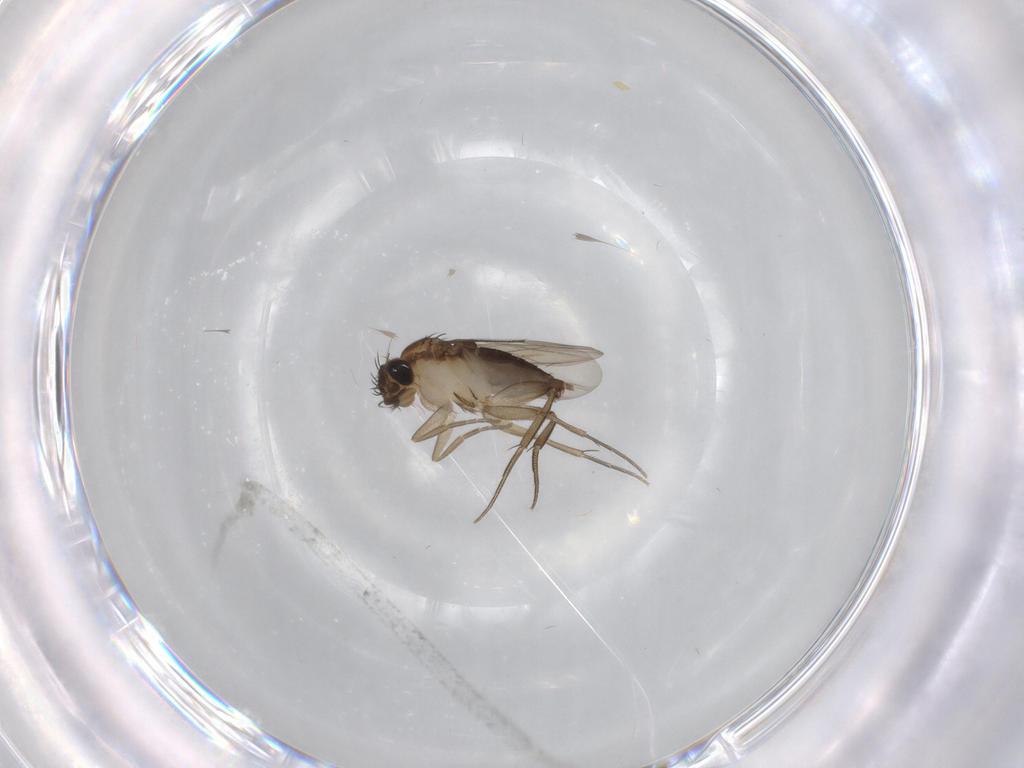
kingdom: Animalia
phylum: Arthropoda
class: Insecta
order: Diptera
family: Phoridae
